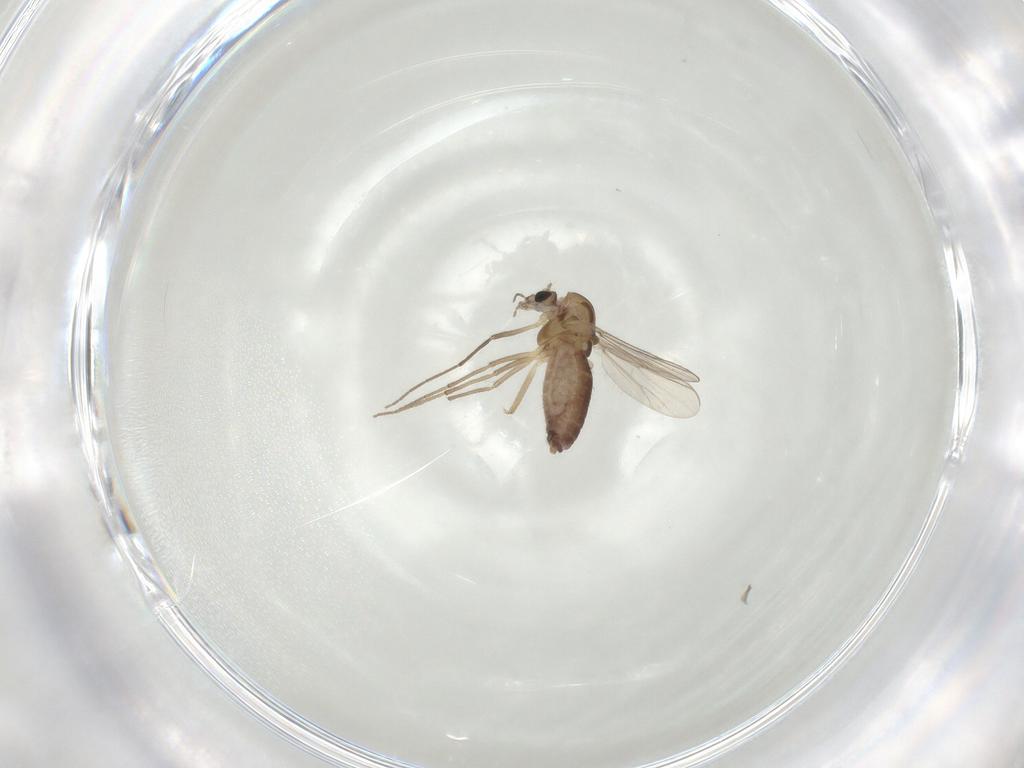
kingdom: Animalia
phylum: Arthropoda
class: Insecta
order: Diptera
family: Chironomidae
